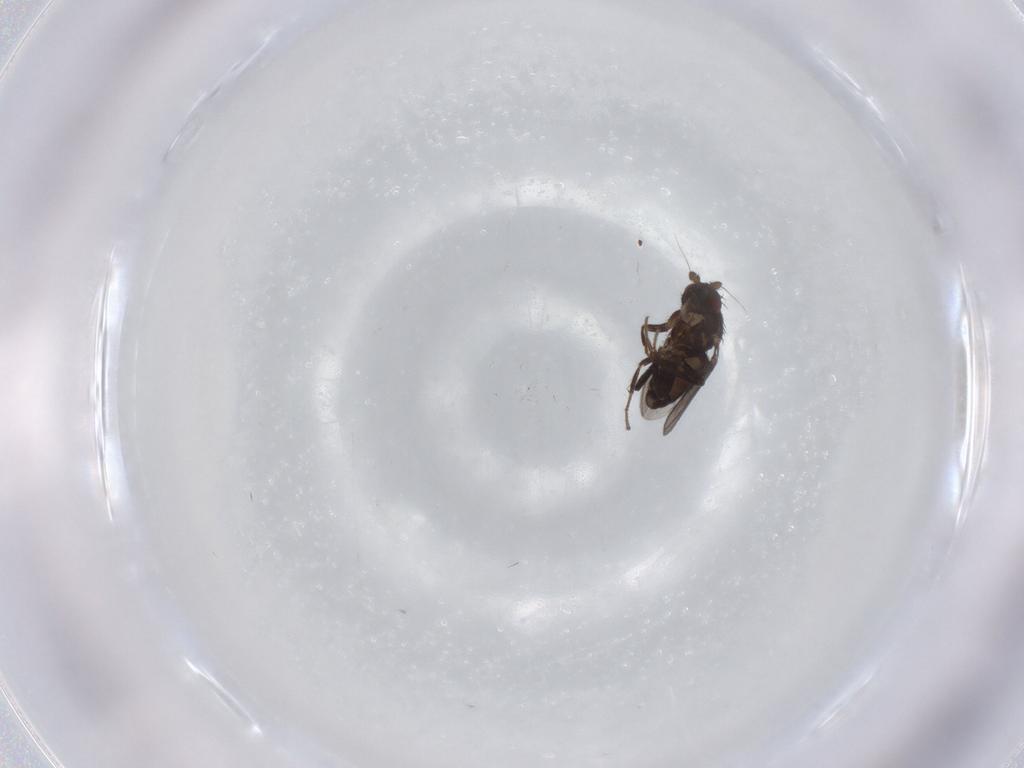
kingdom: Animalia
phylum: Arthropoda
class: Insecta
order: Diptera
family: Sphaeroceridae
